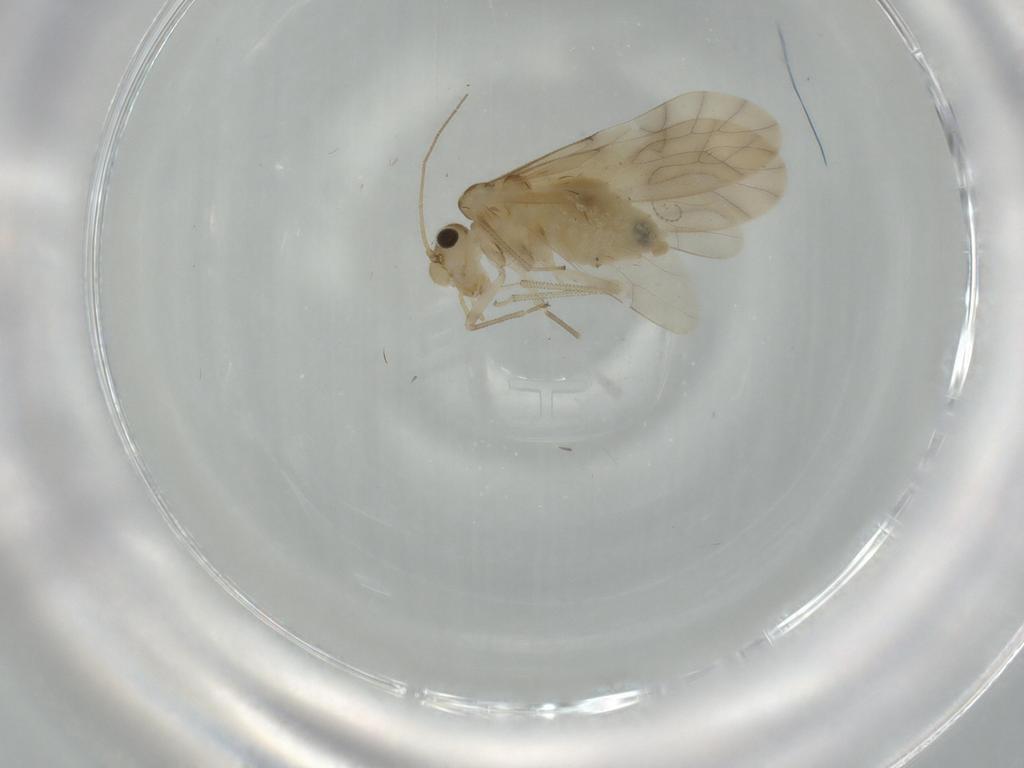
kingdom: Animalia
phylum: Arthropoda
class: Insecta
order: Psocodea
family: Caeciliusidae
